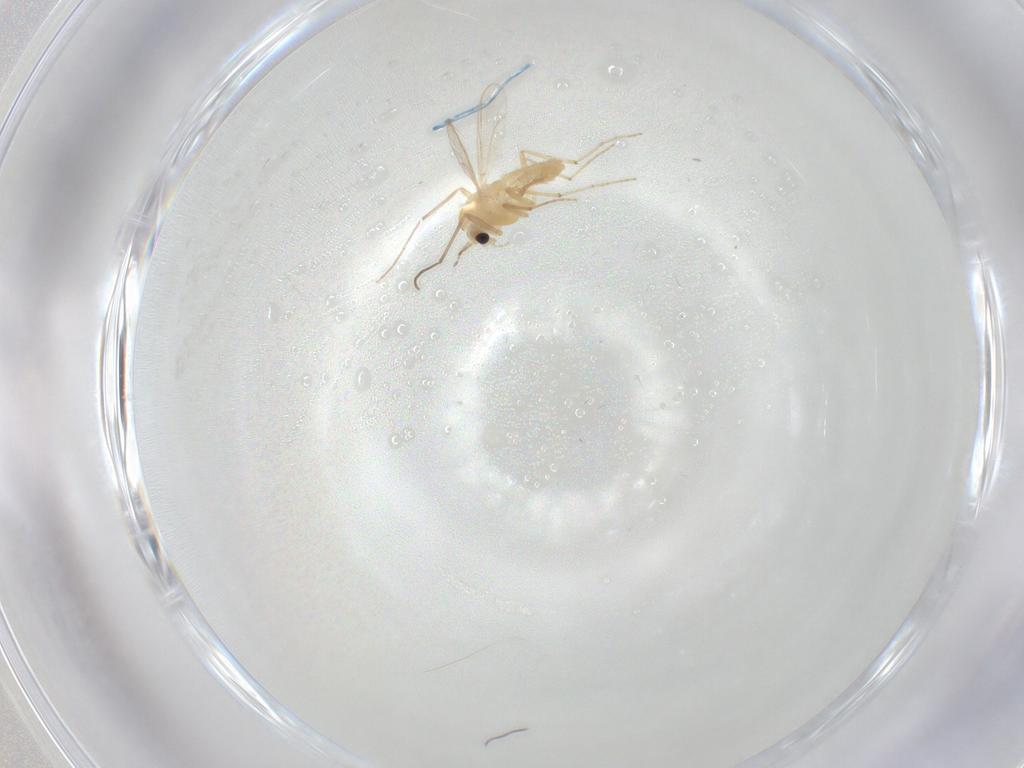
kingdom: Animalia
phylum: Arthropoda
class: Insecta
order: Diptera
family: Chironomidae
